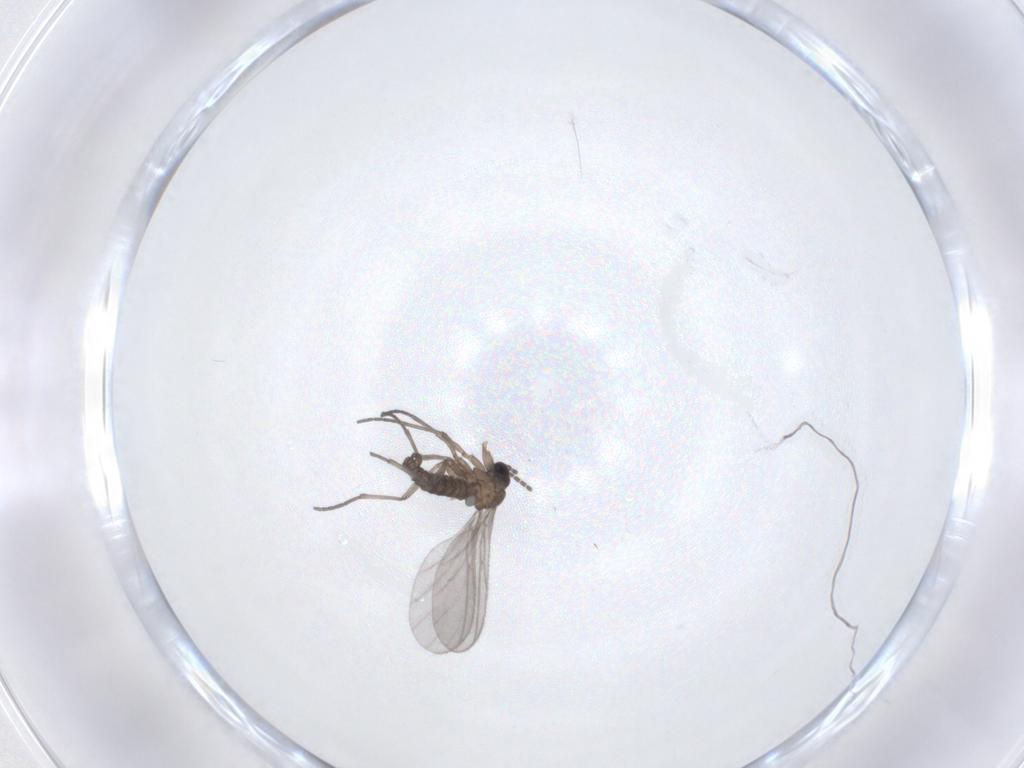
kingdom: Animalia
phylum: Arthropoda
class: Insecta
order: Diptera
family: Sciaridae
